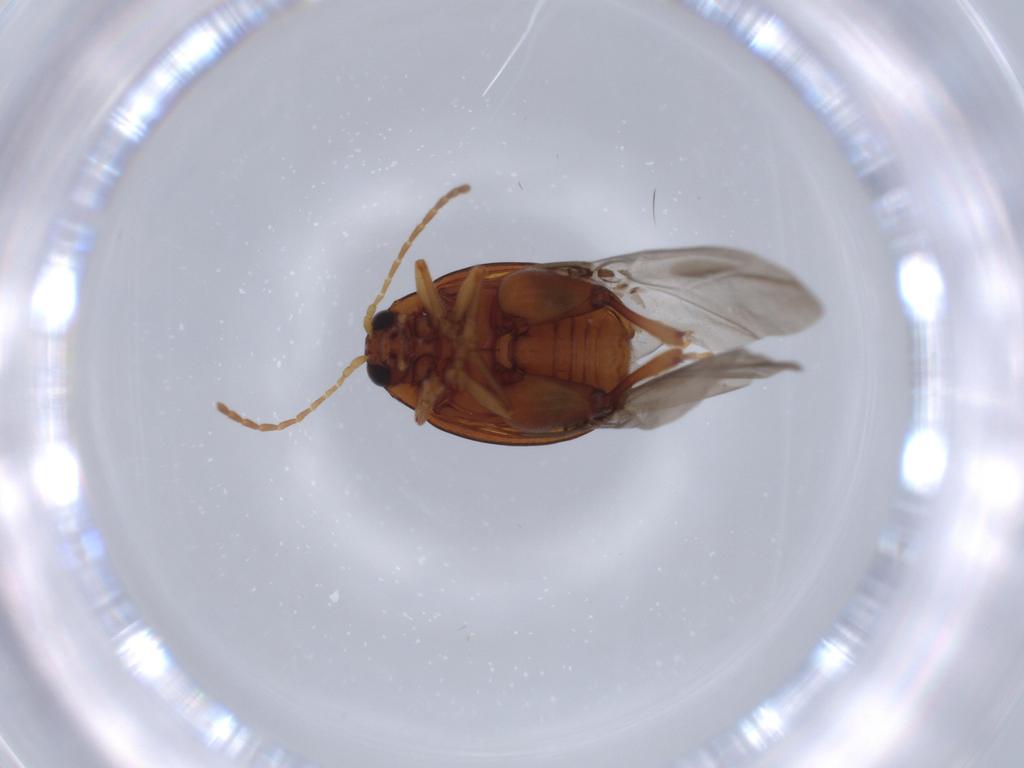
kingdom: Animalia
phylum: Arthropoda
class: Insecta
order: Coleoptera
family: Chrysomelidae
